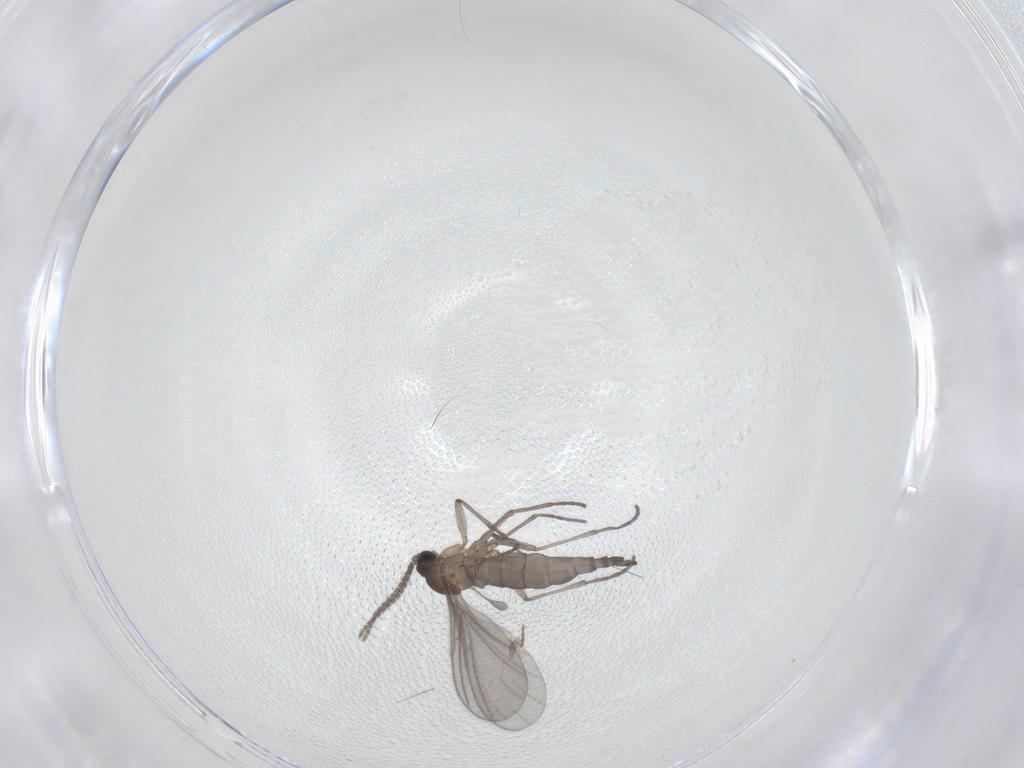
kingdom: Animalia
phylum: Arthropoda
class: Insecta
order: Diptera
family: Sciaridae
